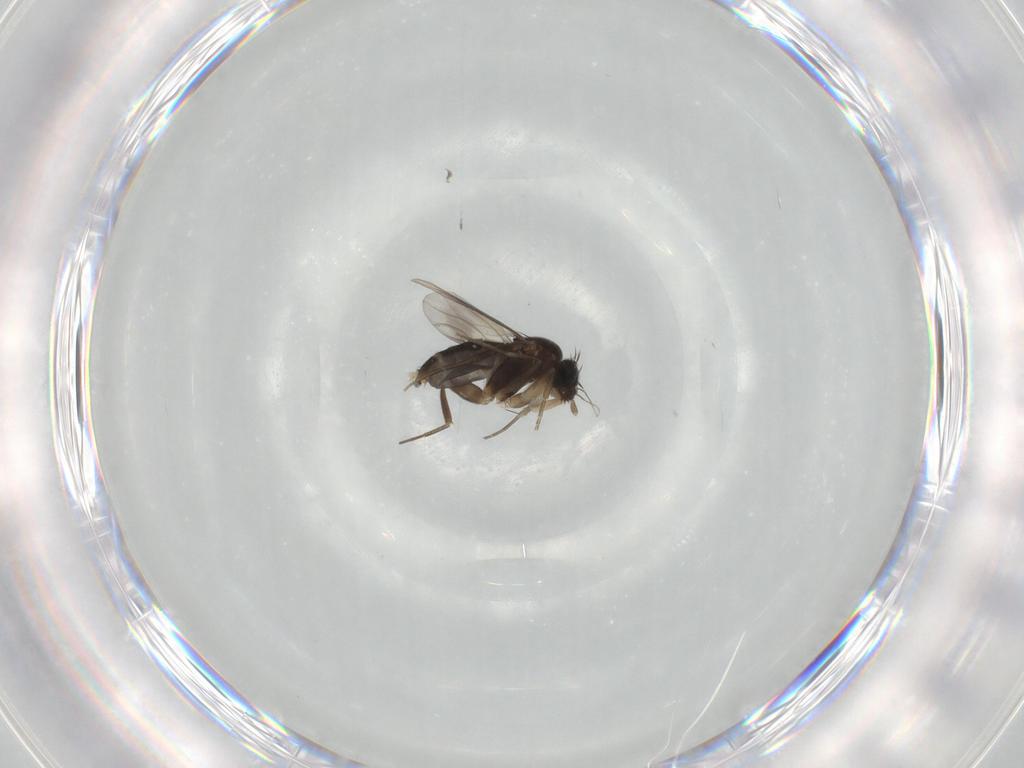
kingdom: Animalia
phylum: Arthropoda
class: Insecta
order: Diptera
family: Phoridae
